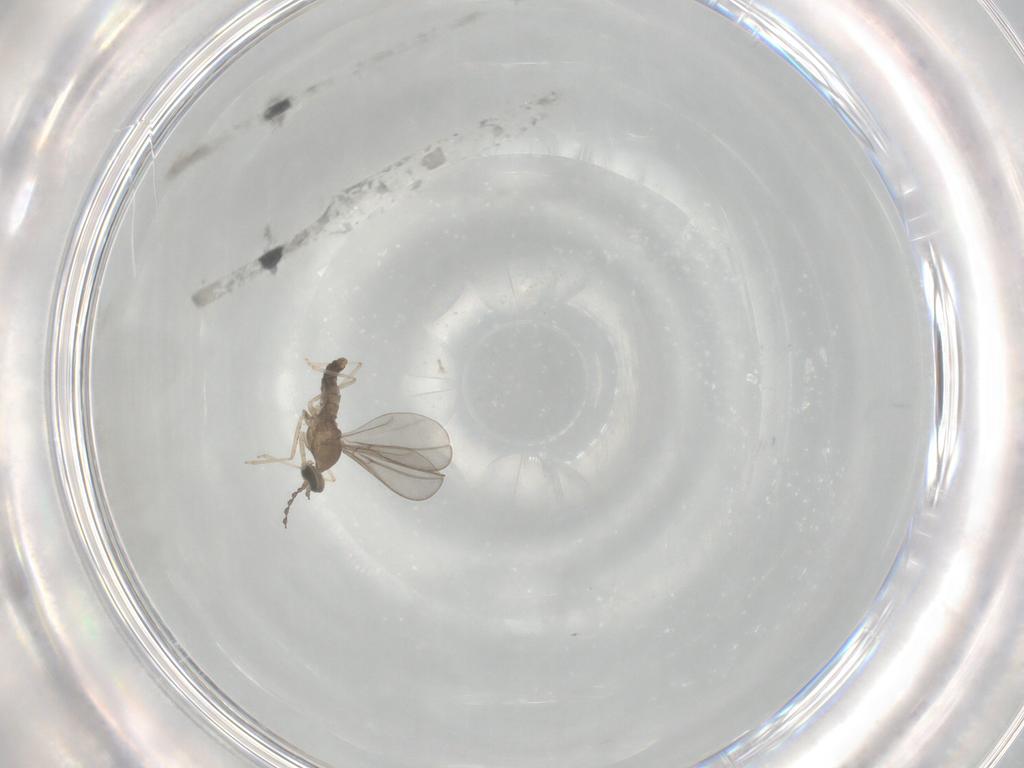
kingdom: Animalia
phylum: Arthropoda
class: Insecta
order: Diptera
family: Cecidomyiidae
